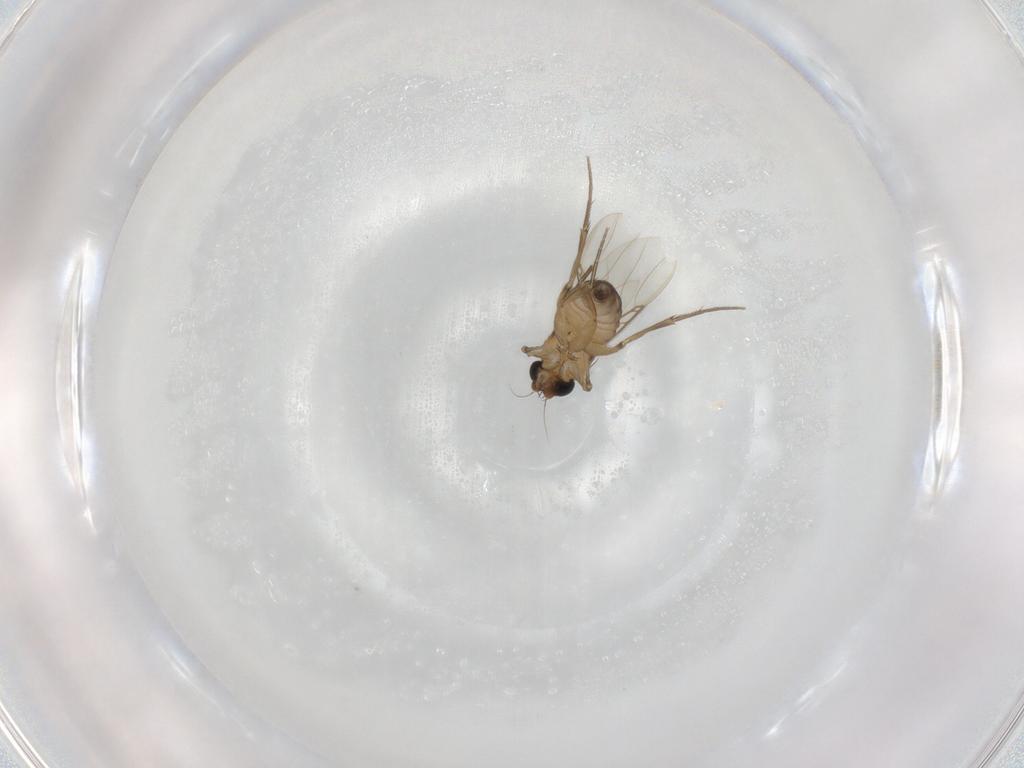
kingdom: Animalia
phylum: Arthropoda
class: Insecta
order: Diptera
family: Phoridae
